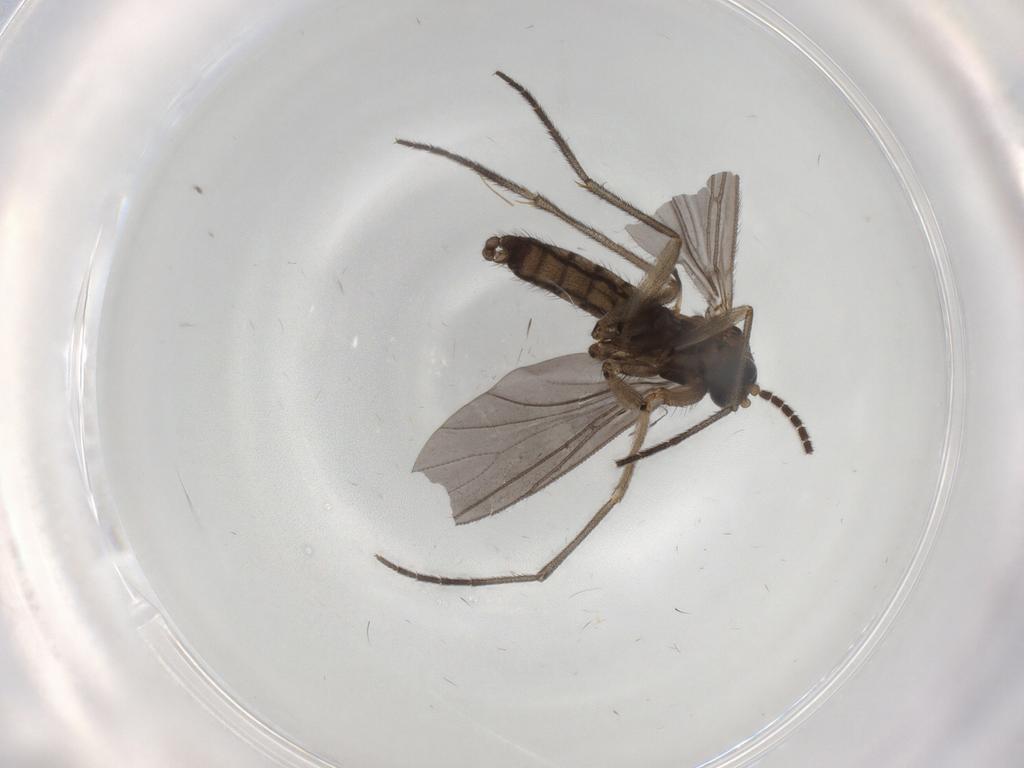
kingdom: Animalia
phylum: Arthropoda
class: Insecta
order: Diptera
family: Sciaridae
